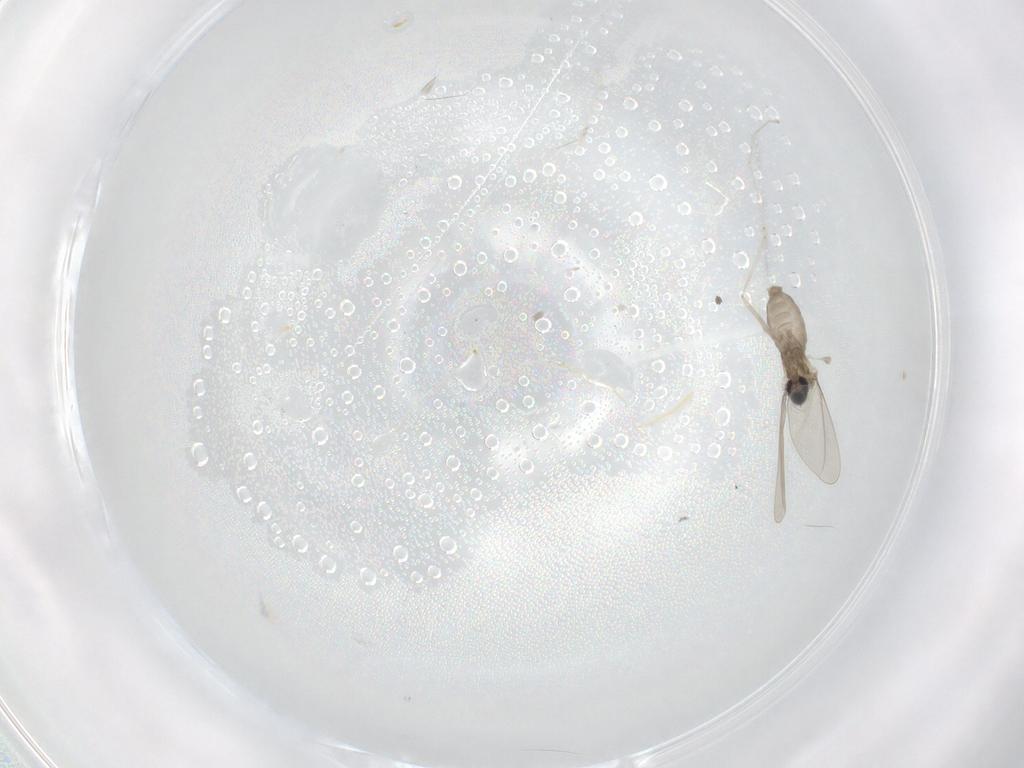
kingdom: Animalia
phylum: Arthropoda
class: Insecta
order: Diptera
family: Cecidomyiidae
